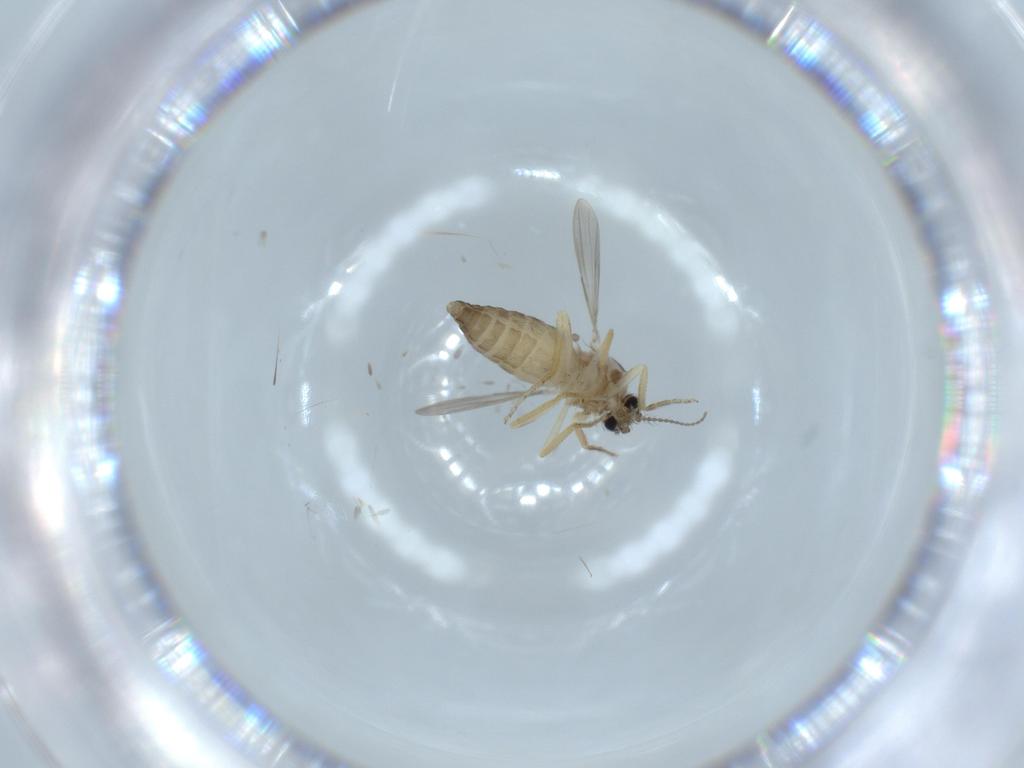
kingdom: Animalia
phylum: Arthropoda
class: Insecta
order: Diptera
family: Ceratopogonidae
